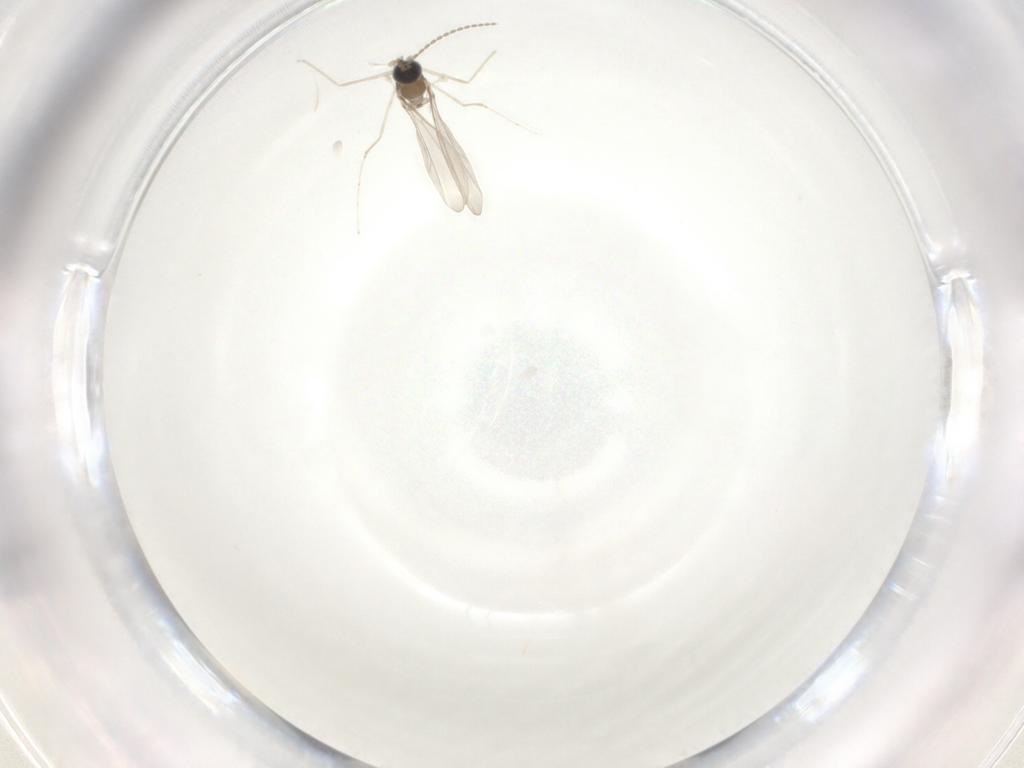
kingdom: Animalia
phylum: Arthropoda
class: Insecta
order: Diptera
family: Cecidomyiidae
